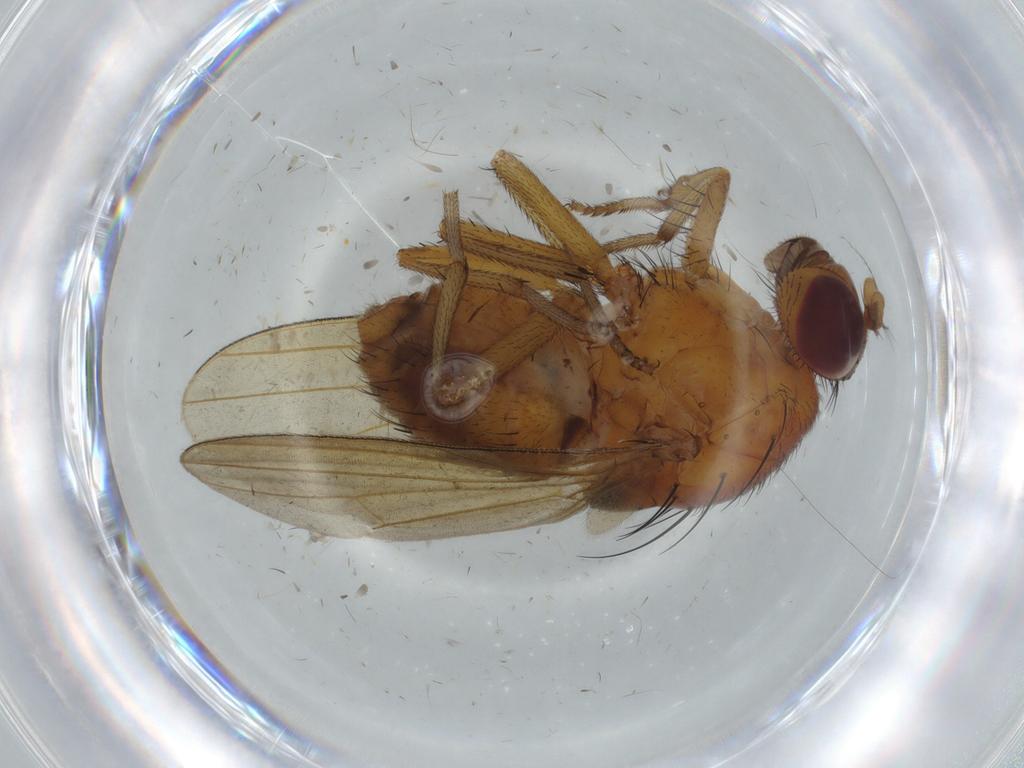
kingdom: Animalia
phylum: Arthropoda
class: Insecta
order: Diptera
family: Cecidomyiidae
